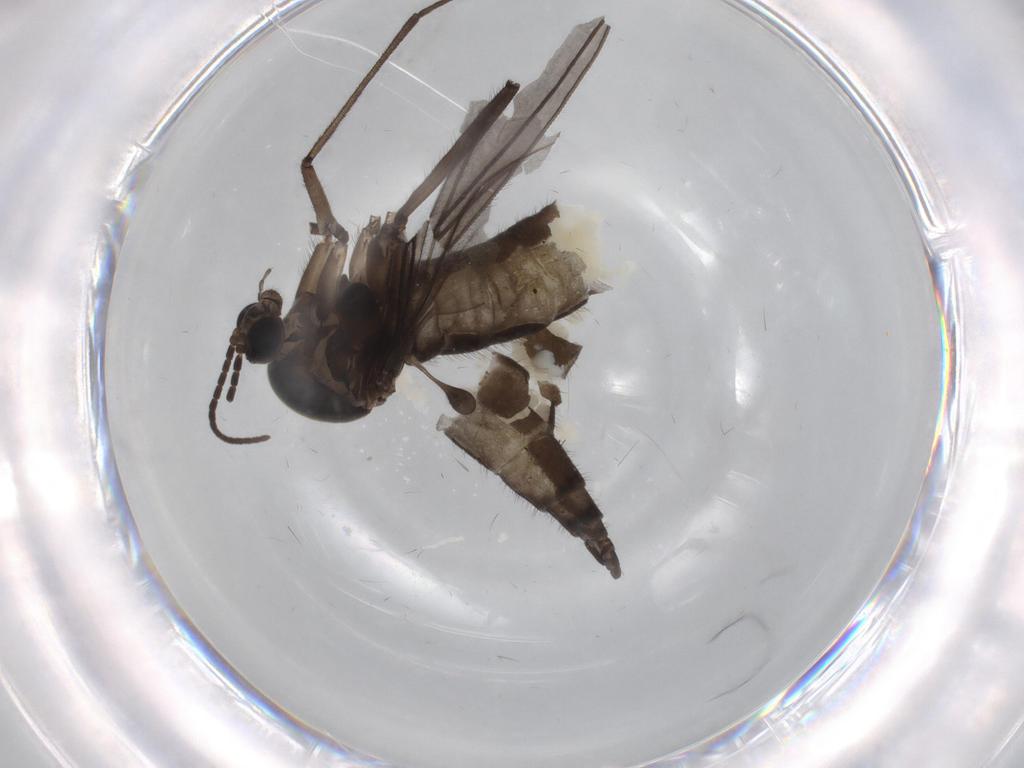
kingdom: Animalia
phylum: Arthropoda
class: Insecta
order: Diptera
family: Sciaridae
